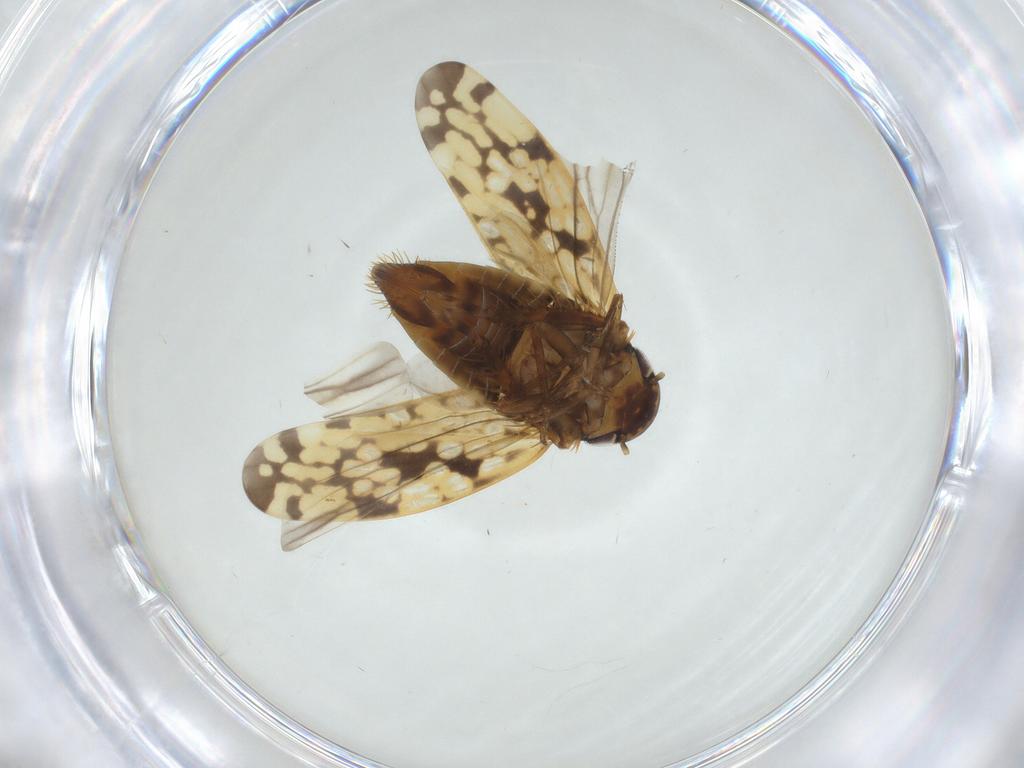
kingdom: Animalia
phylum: Arthropoda
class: Insecta
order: Hemiptera
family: Cicadellidae
